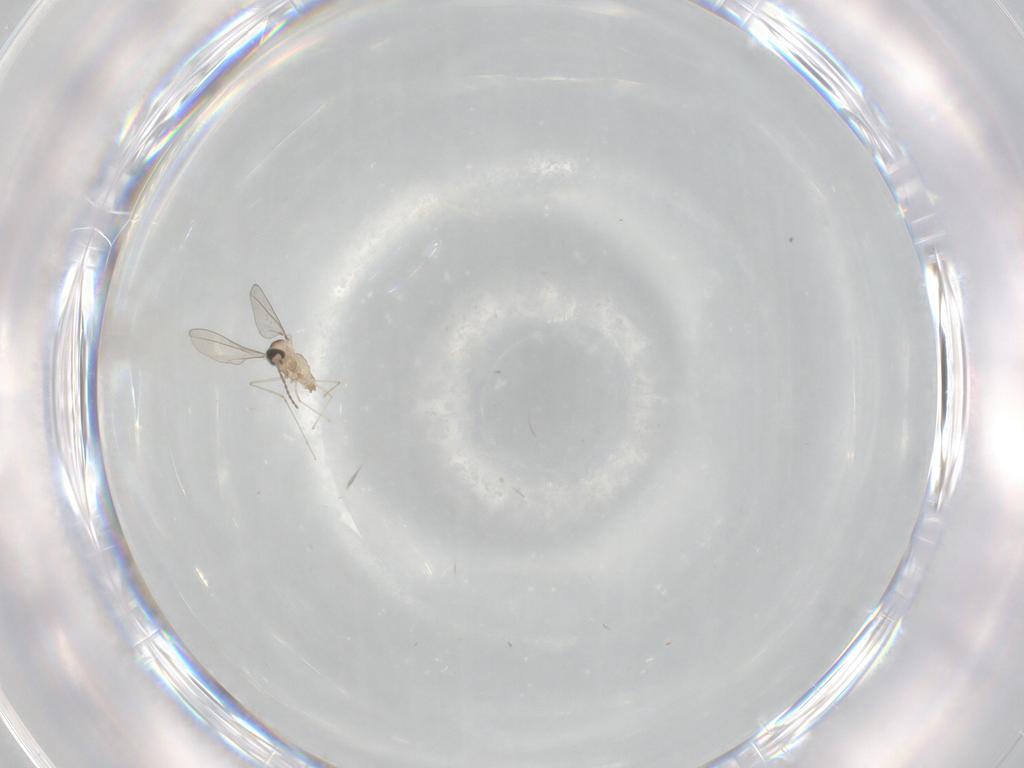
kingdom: Animalia
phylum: Arthropoda
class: Insecta
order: Diptera
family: Cecidomyiidae
